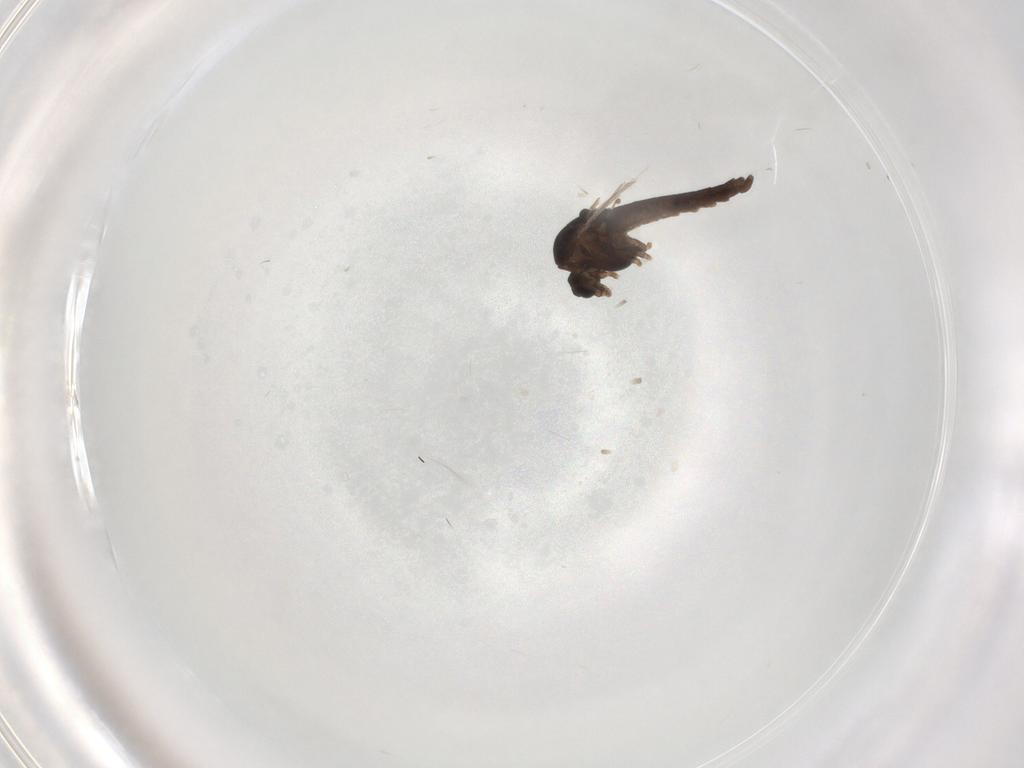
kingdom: Animalia
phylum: Arthropoda
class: Insecta
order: Diptera
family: Chironomidae
